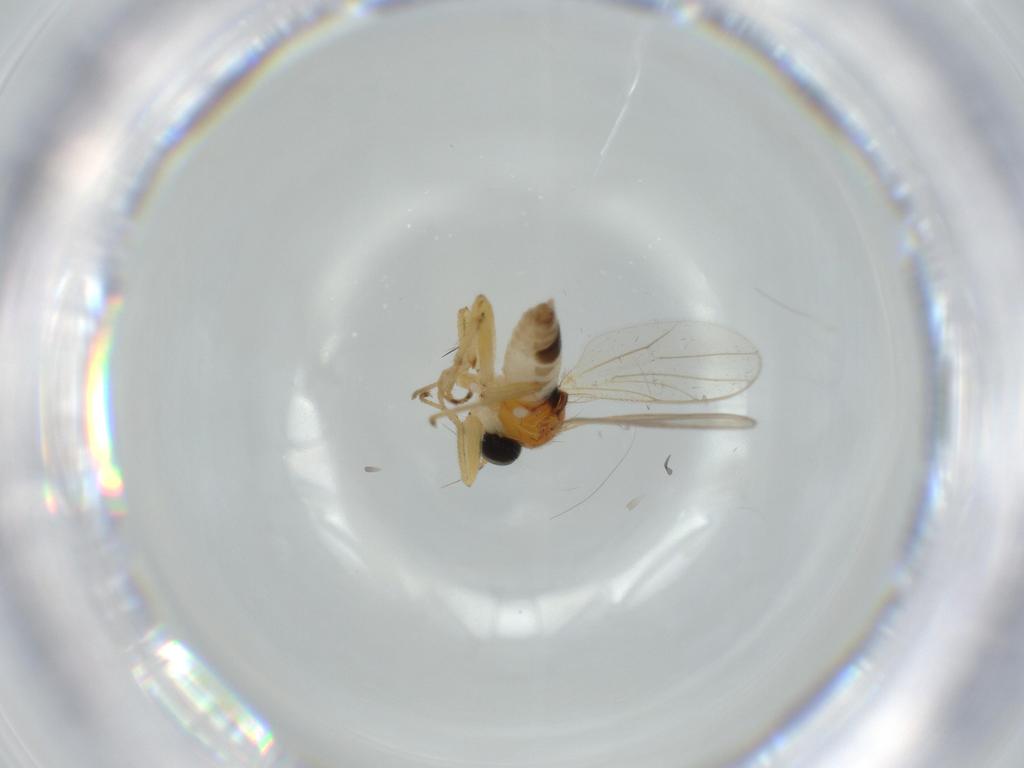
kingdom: Animalia
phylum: Arthropoda
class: Insecta
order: Diptera
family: Hybotidae
